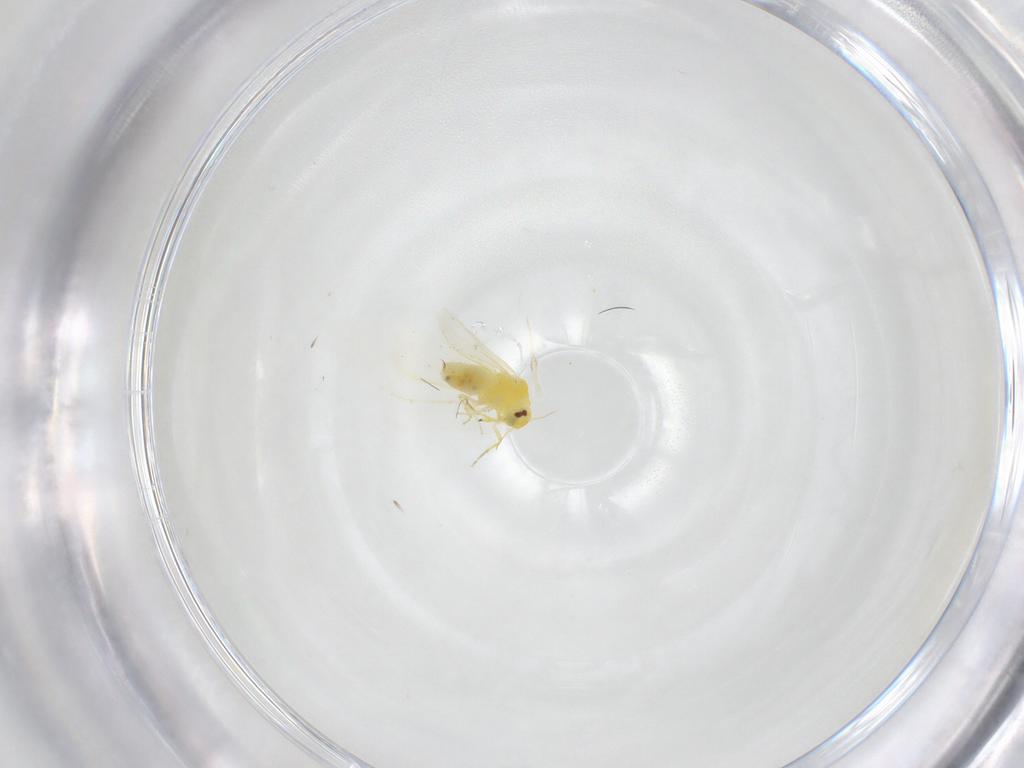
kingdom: Animalia
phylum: Arthropoda
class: Insecta
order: Hemiptera
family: Aleyrodidae
